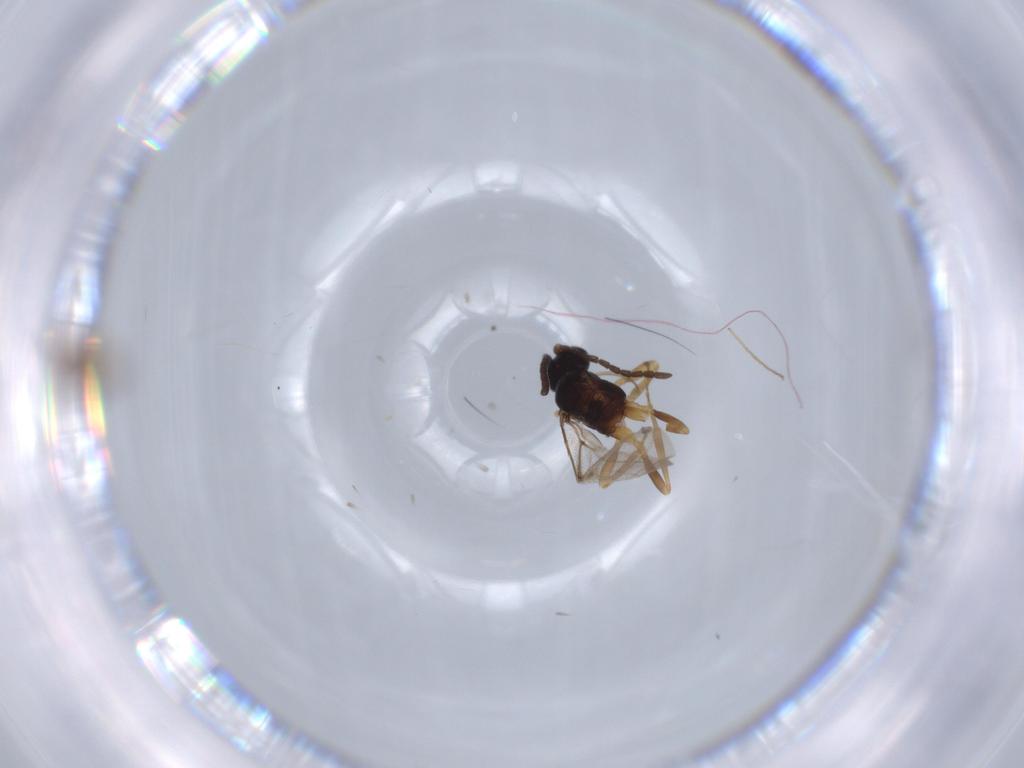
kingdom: Animalia
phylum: Arthropoda
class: Insecta
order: Hymenoptera
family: Braconidae
